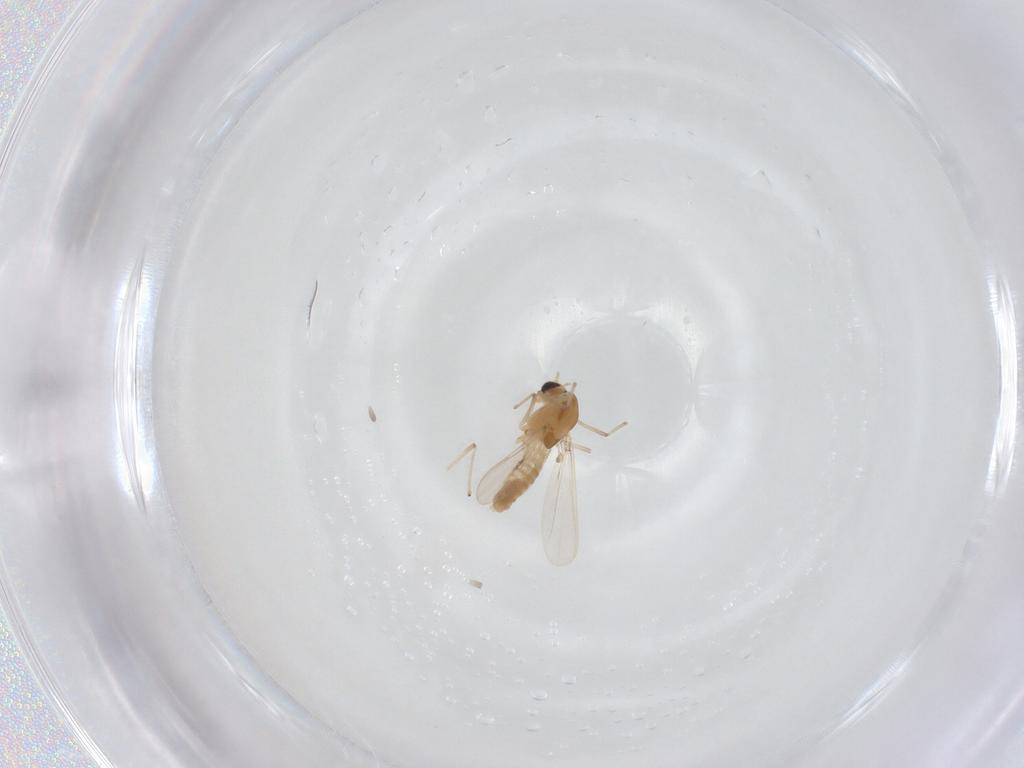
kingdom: Animalia
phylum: Arthropoda
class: Insecta
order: Diptera
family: Chironomidae
